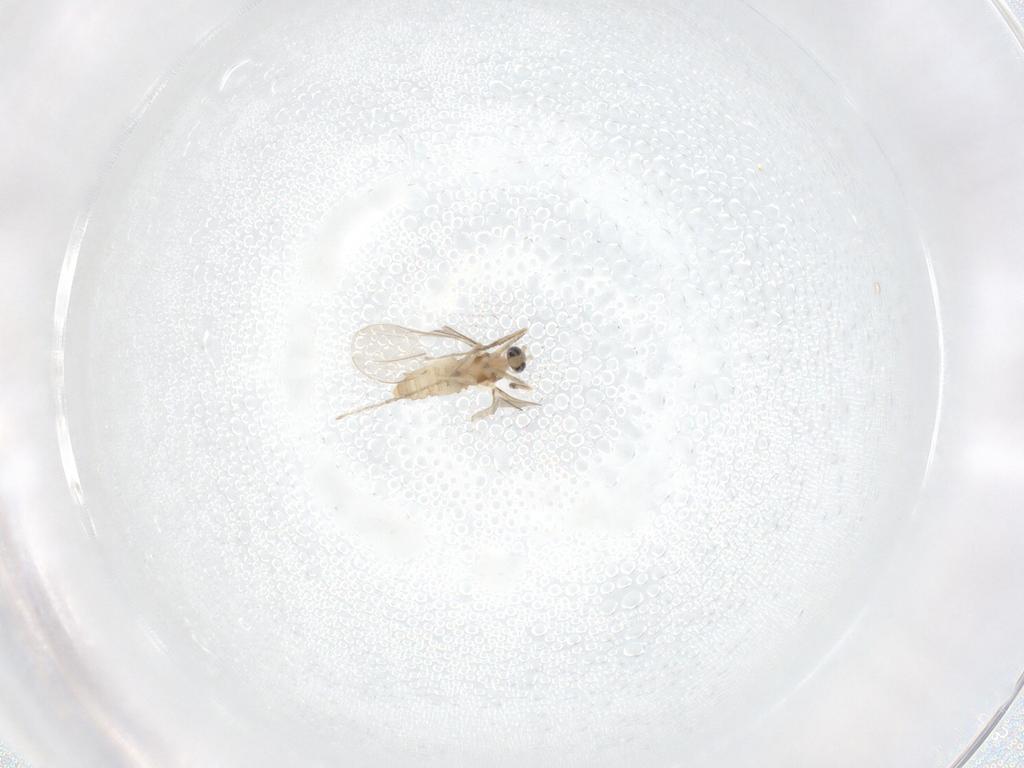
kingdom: Animalia
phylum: Arthropoda
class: Insecta
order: Diptera
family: Cecidomyiidae
